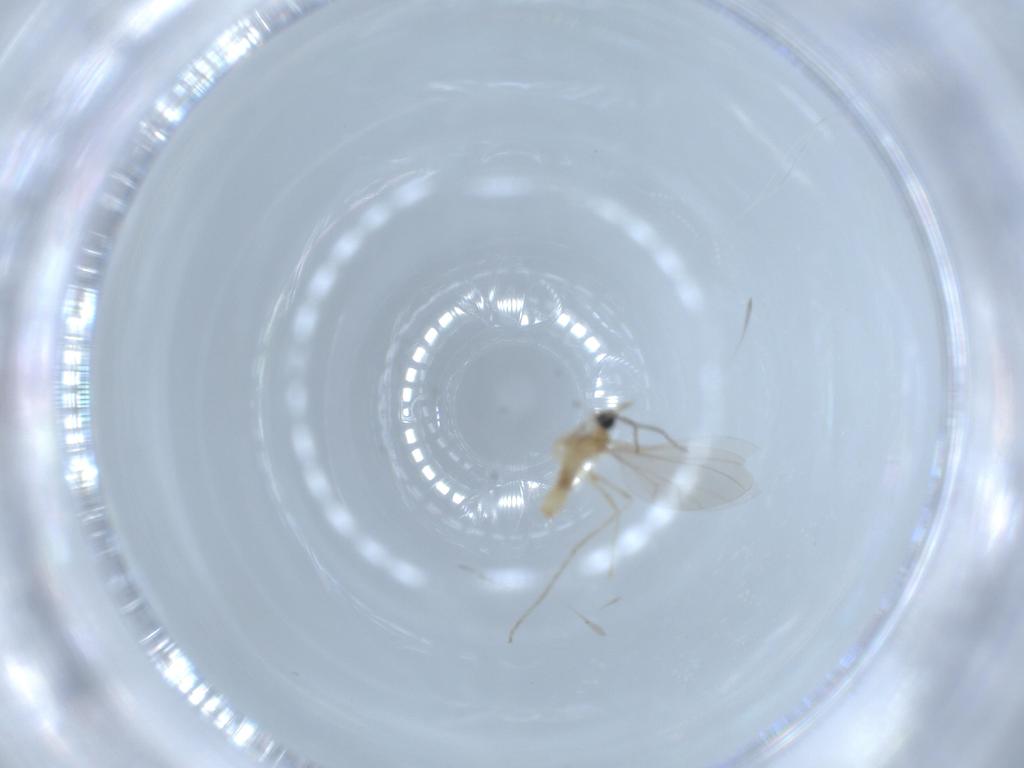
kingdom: Animalia
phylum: Arthropoda
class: Insecta
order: Diptera
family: Cecidomyiidae
